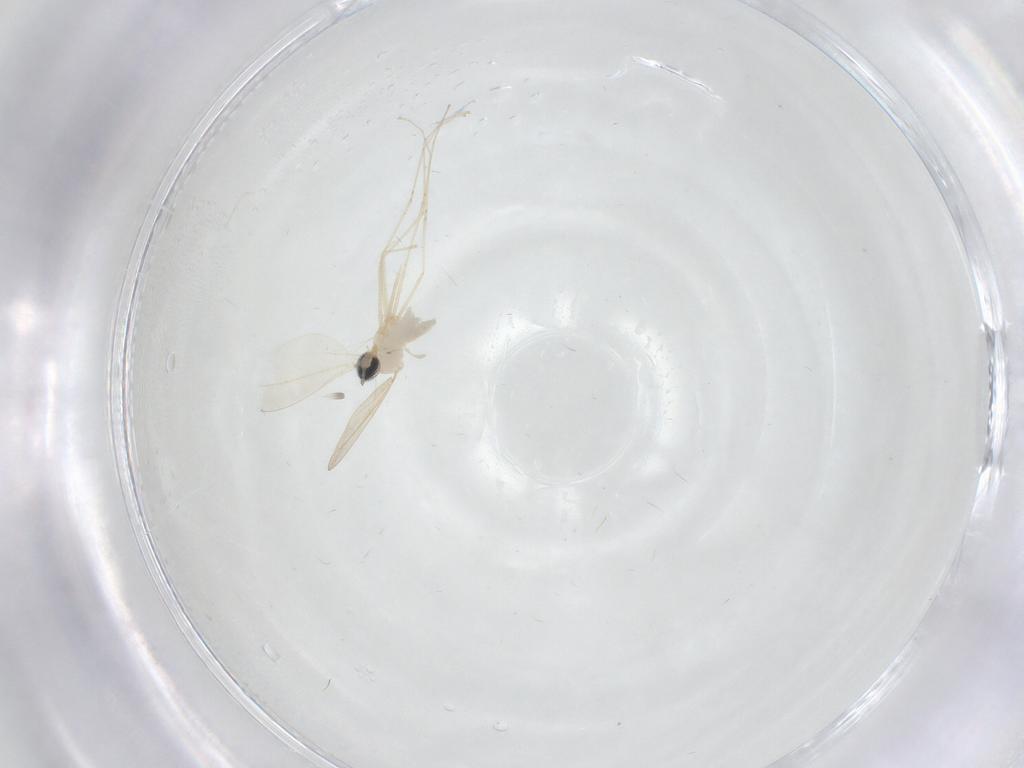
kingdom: Animalia
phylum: Arthropoda
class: Insecta
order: Diptera
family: Cecidomyiidae
